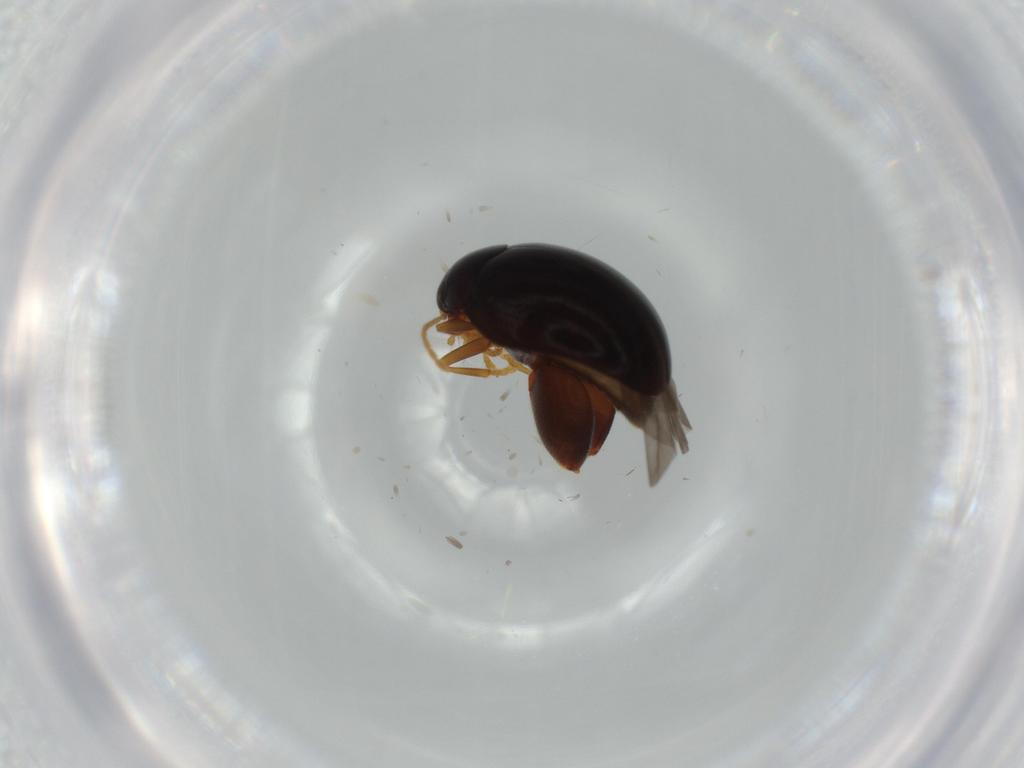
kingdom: Animalia
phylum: Arthropoda
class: Insecta
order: Coleoptera
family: Chrysomelidae
